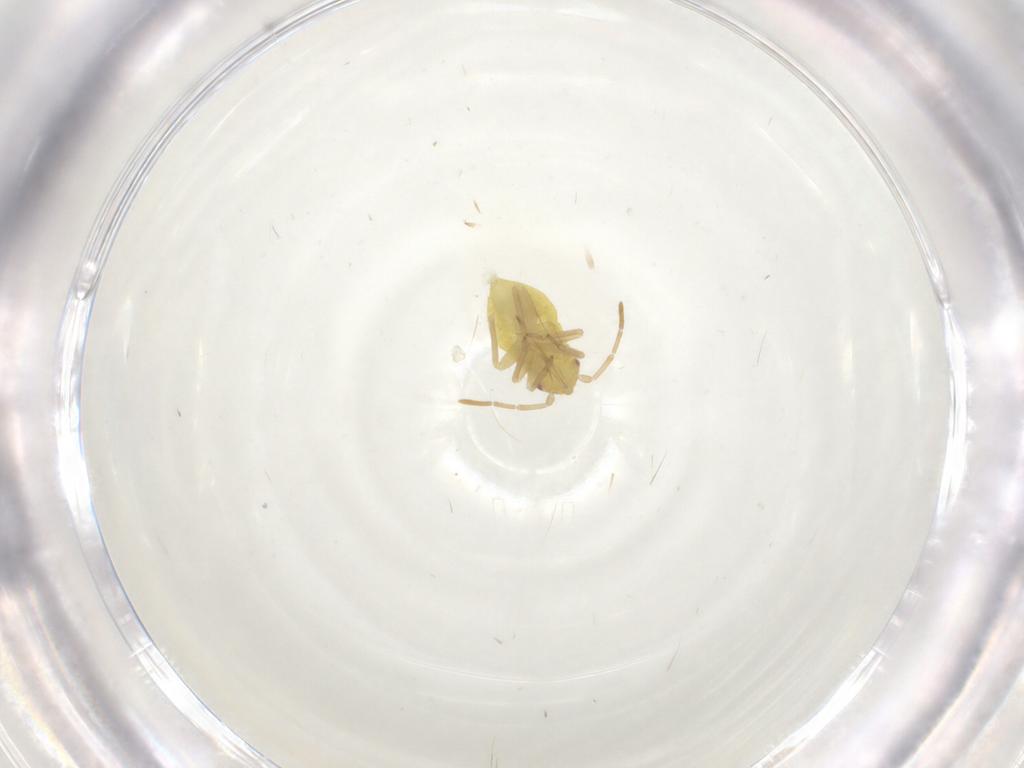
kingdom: Animalia
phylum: Arthropoda
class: Insecta
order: Hemiptera
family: Miridae
